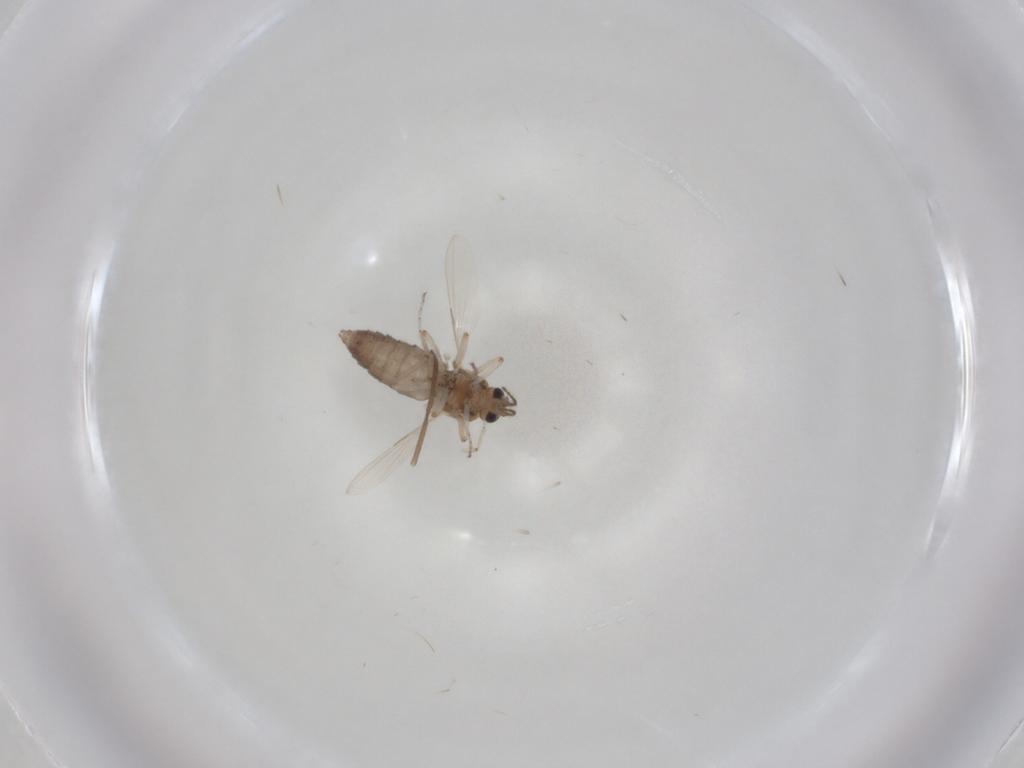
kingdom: Animalia
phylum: Arthropoda
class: Insecta
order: Diptera
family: Ceratopogonidae
